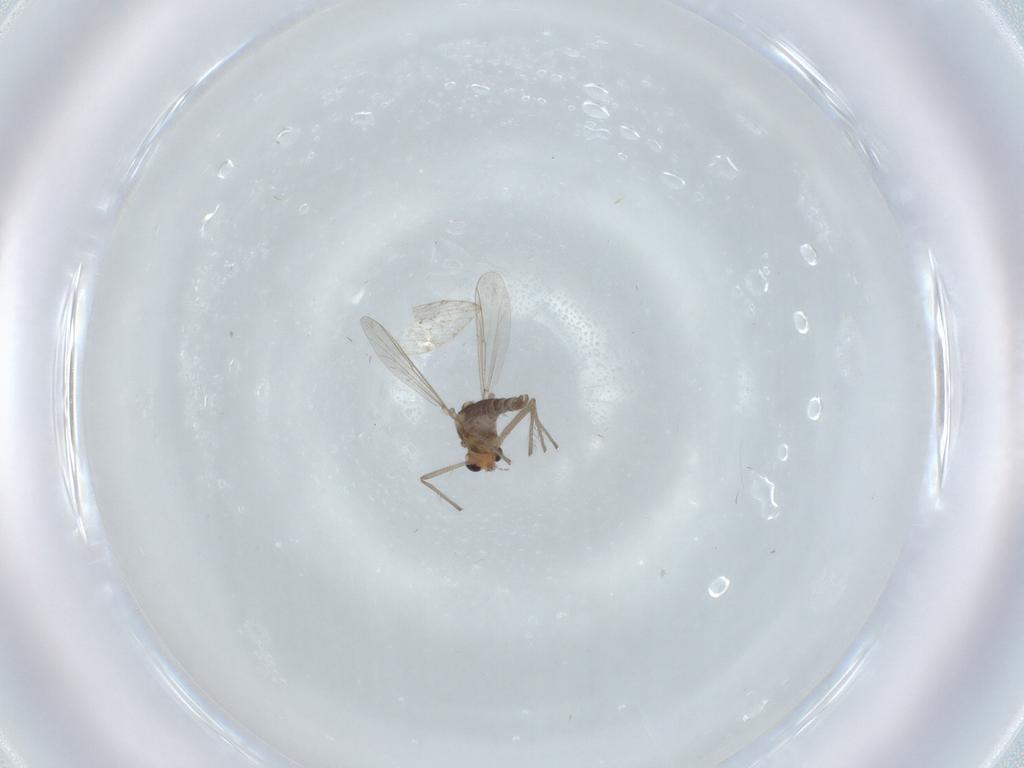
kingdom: Animalia
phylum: Arthropoda
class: Insecta
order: Diptera
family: Chironomidae
